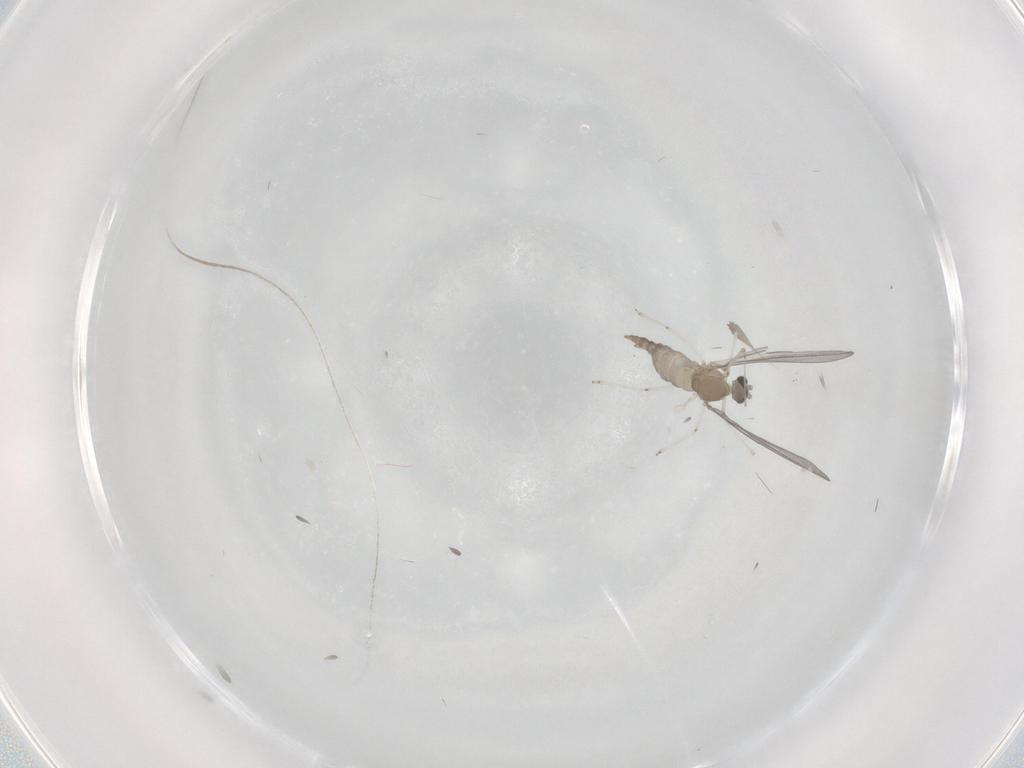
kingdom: Animalia
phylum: Arthropoda
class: Insecta
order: Diptera
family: Cecidomyiidae
